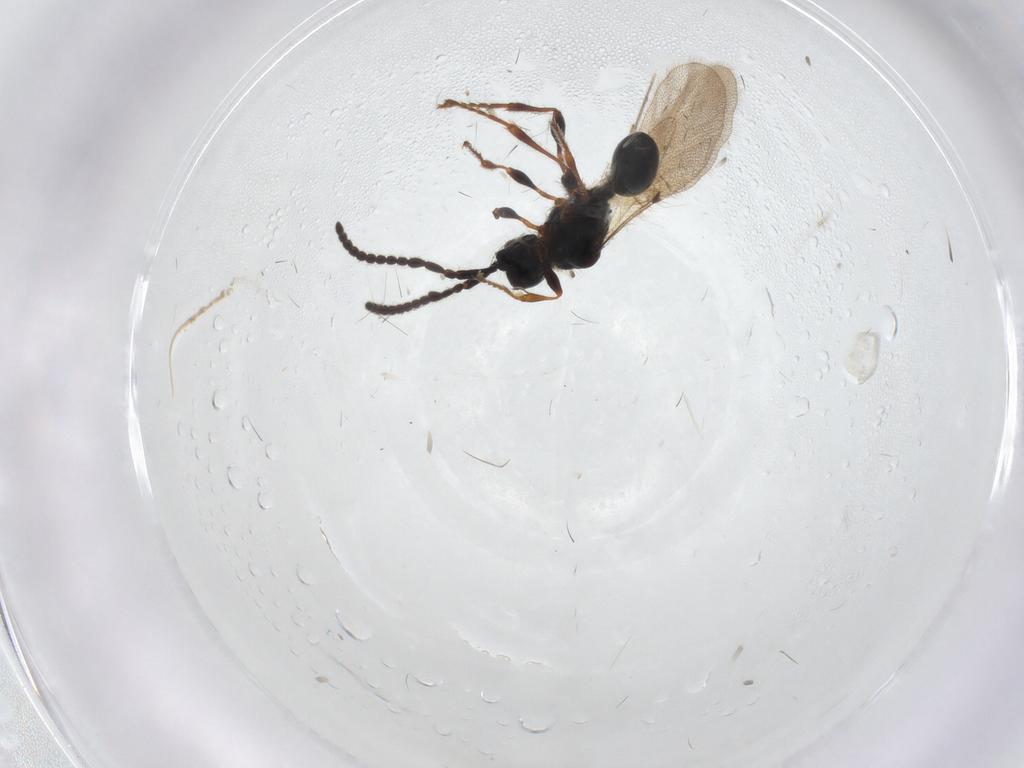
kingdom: Animalia
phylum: Arthropoda
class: Insecta
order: Hymenoptera
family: Diapriidae
